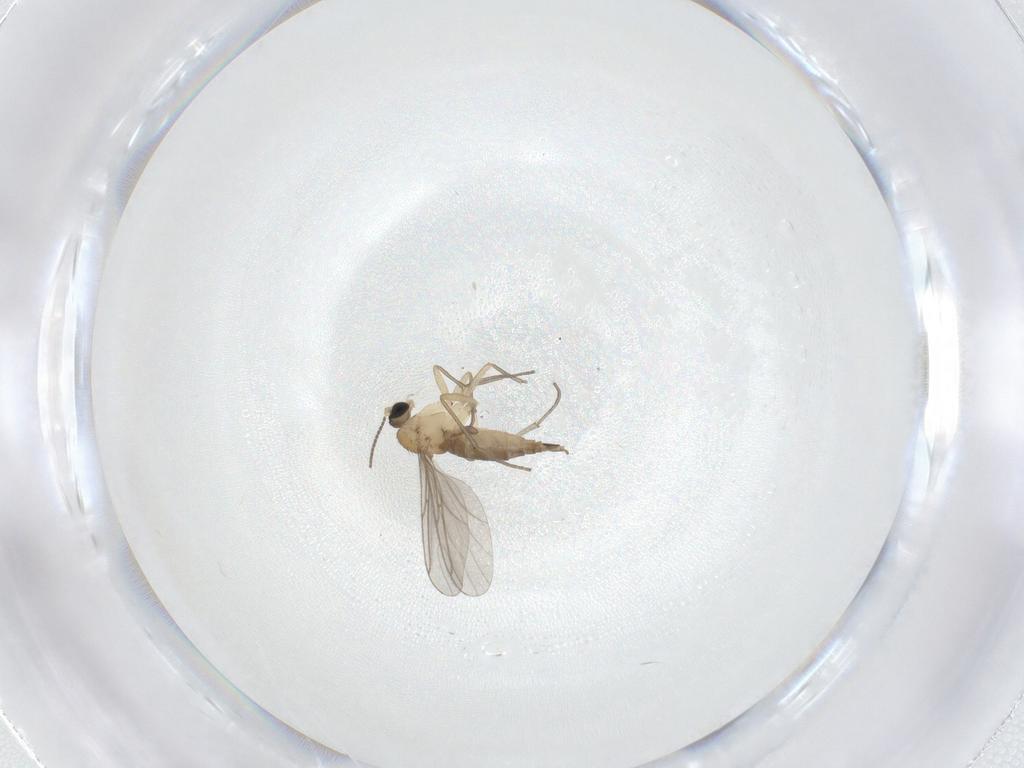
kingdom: Animalia
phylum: Arthropoda
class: Insecta
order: Diptera
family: Sciaridae
